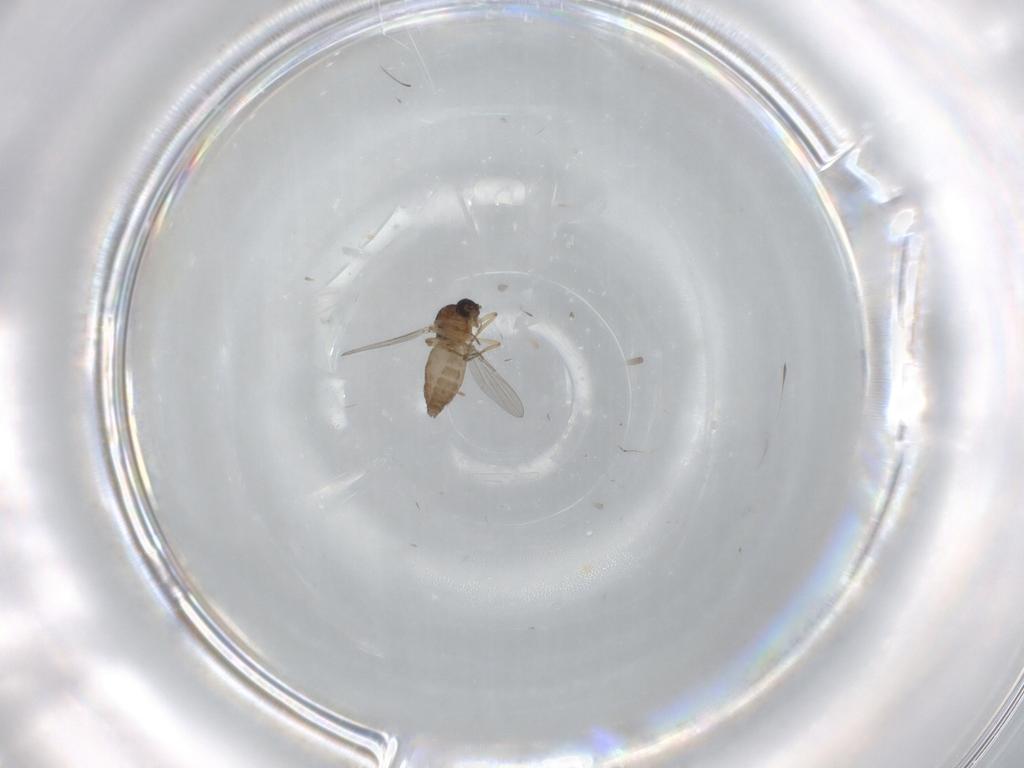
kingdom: Animalia
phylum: Arthropoda
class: Insecta
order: Diptera
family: Ceratopogonidae
